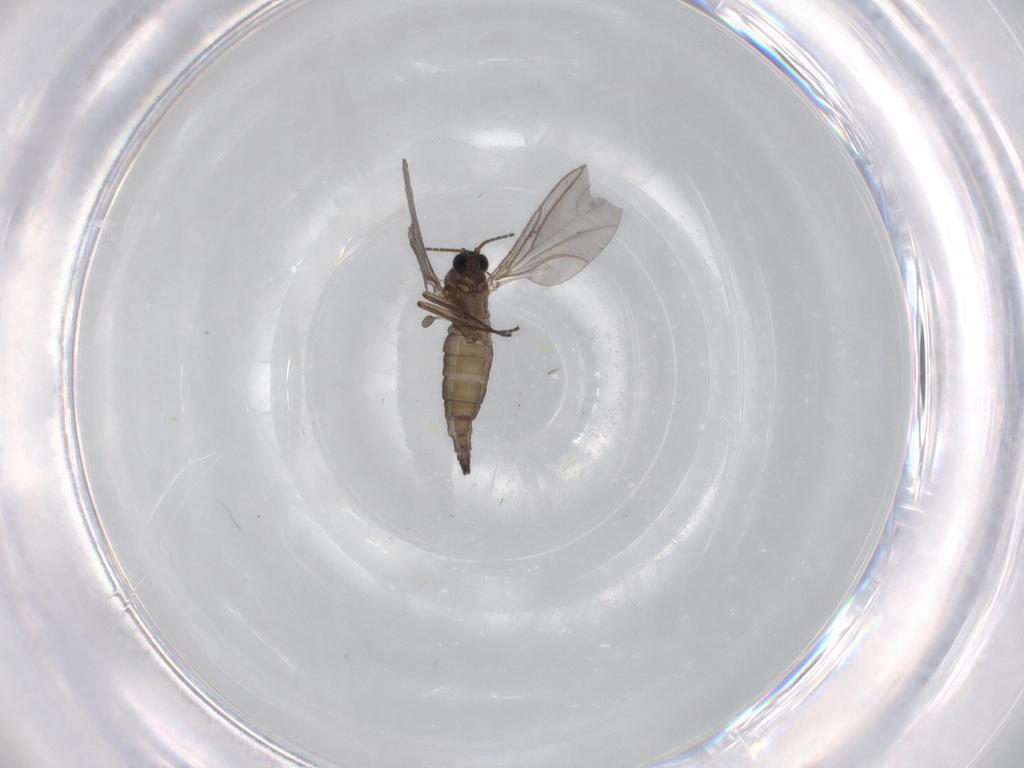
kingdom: Animalia
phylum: Arthropoda
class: Insecta
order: Diptera
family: Sciaridae
